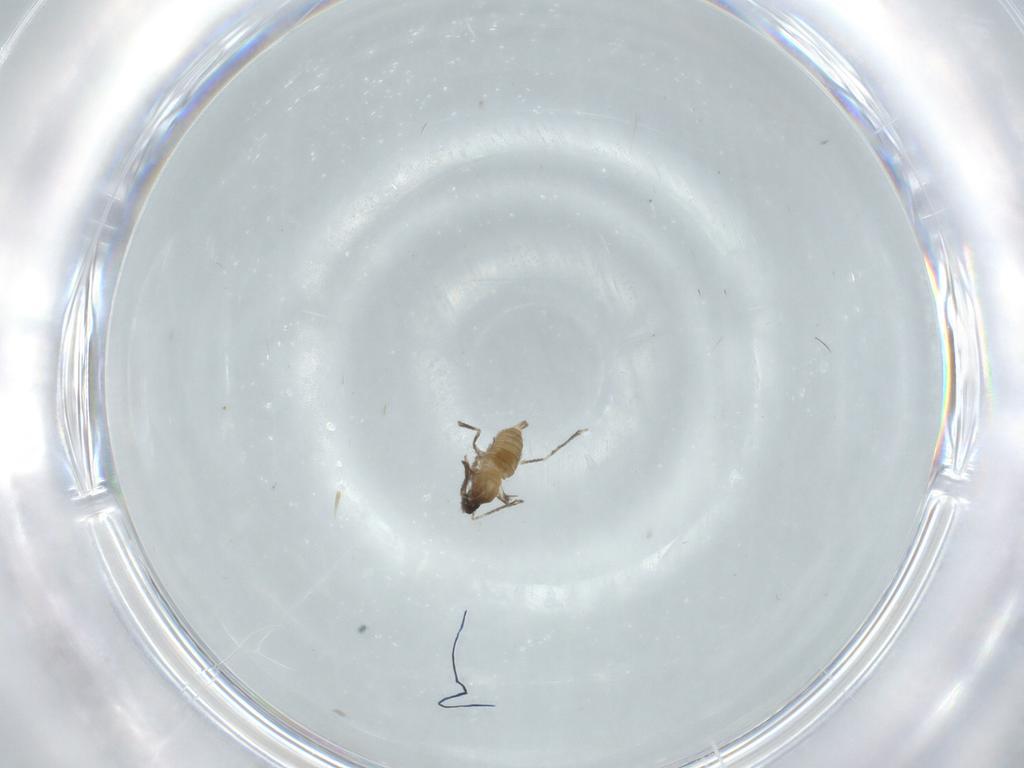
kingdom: Animalia
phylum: Arthropoda
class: Insecta
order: Diptera
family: Cecidomyiidae
